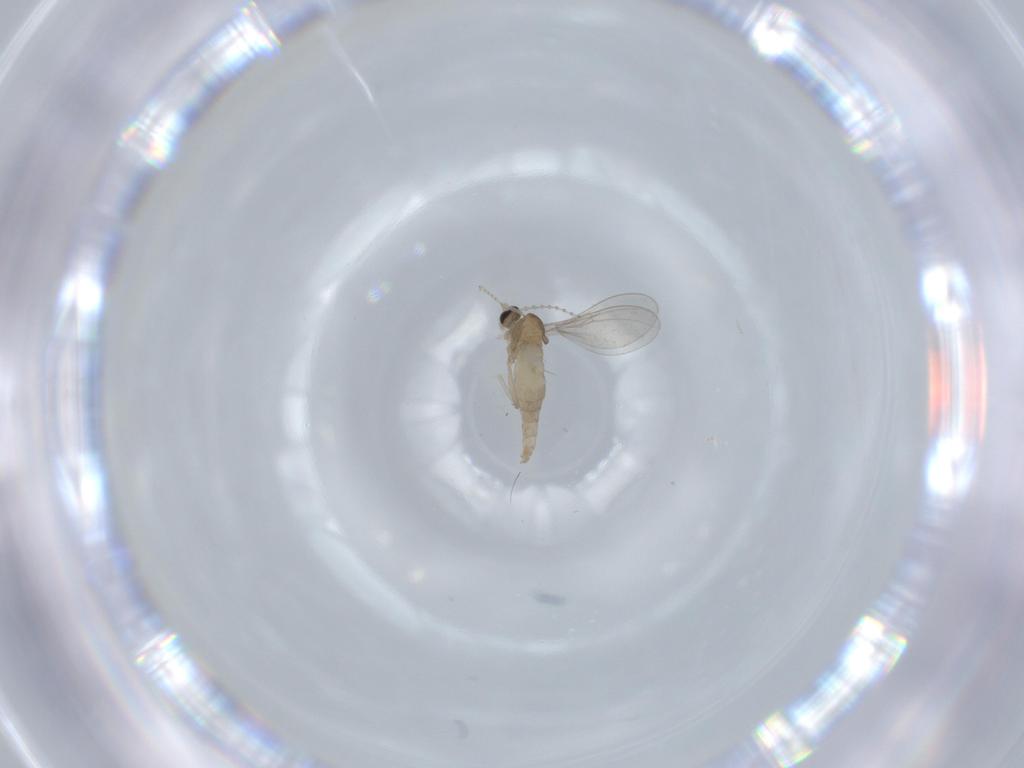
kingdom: Animalia
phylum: Arthropoda
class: Insecta
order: Diptera
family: Cecidomyiidae
